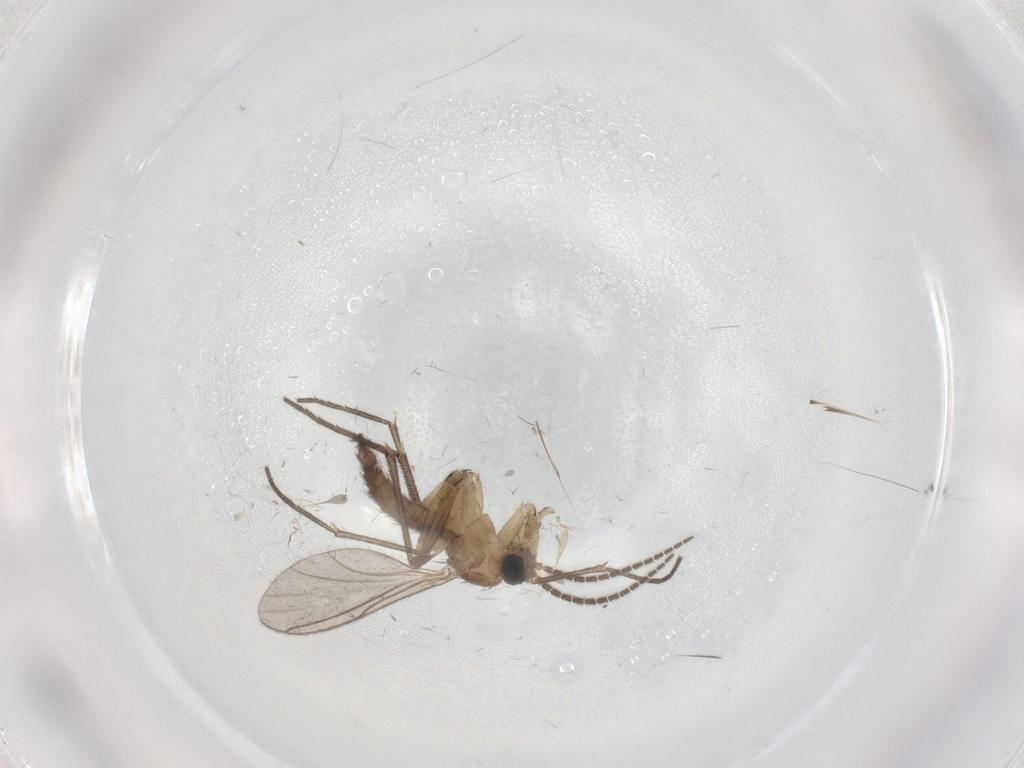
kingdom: Animalia
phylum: Arthropoda
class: Insecta
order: Diptera
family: Sciaridae
